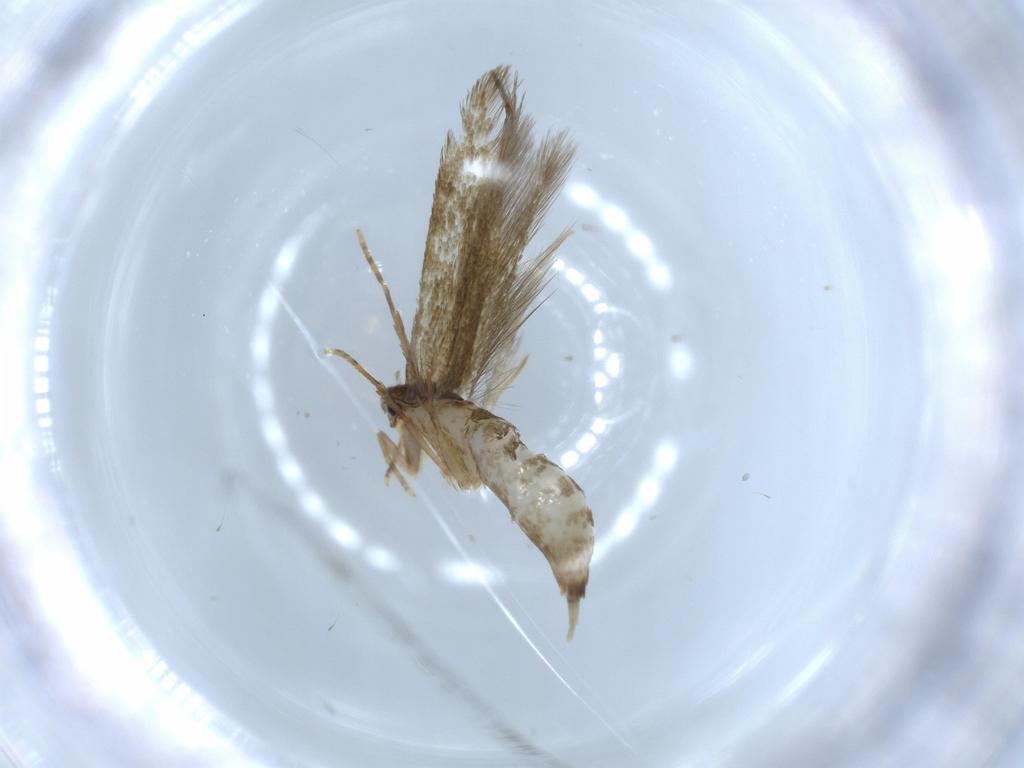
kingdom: Animalia
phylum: Arthropoda
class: Insecta
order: Lepidoptera
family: Tineidae
